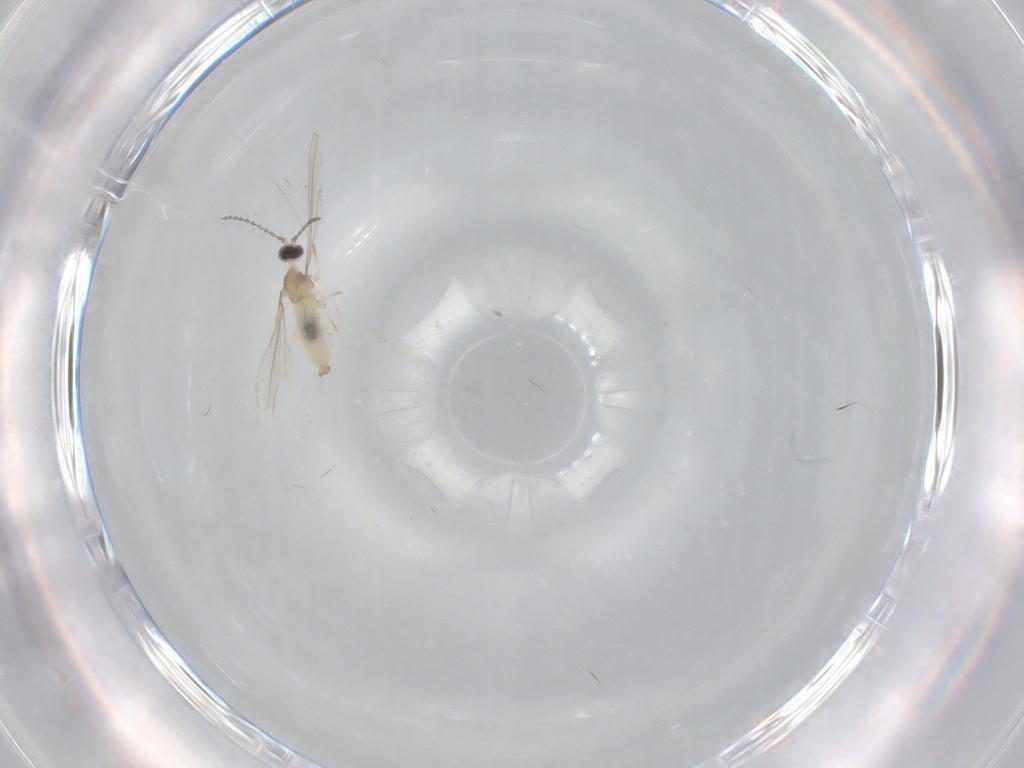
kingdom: Animalia
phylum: Arthropoda
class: Insecta
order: Diptera
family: Cecidomyiidae
